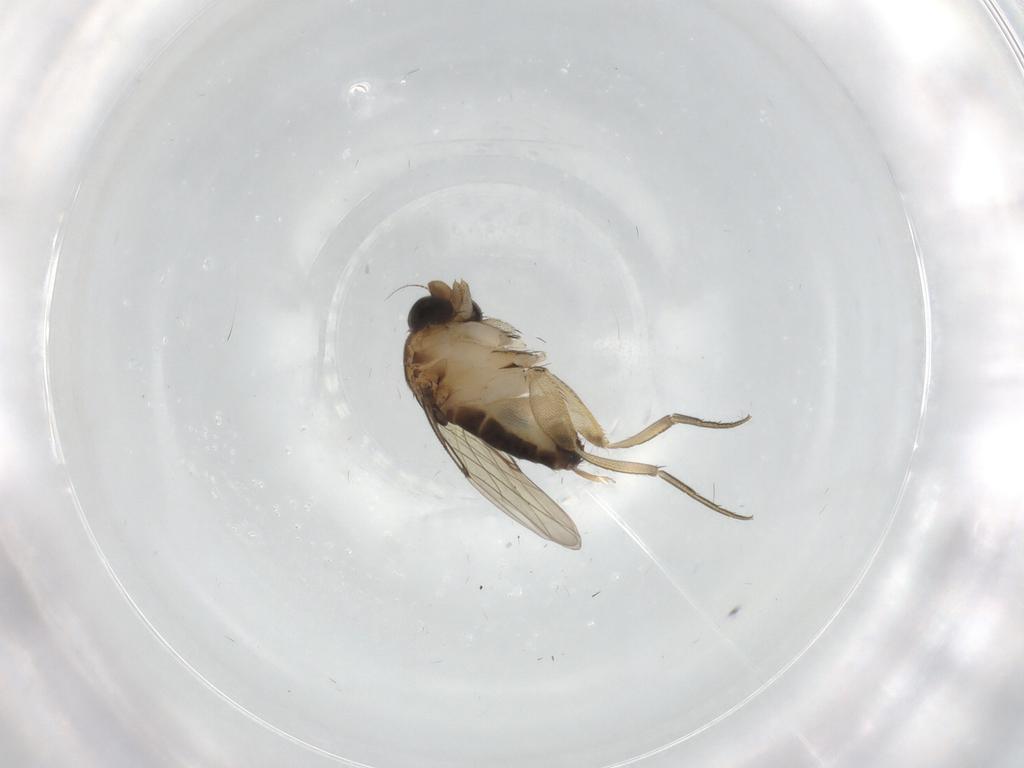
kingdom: Animalia
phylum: Arthropoda
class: Insecta
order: Diptera
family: Phoridae
